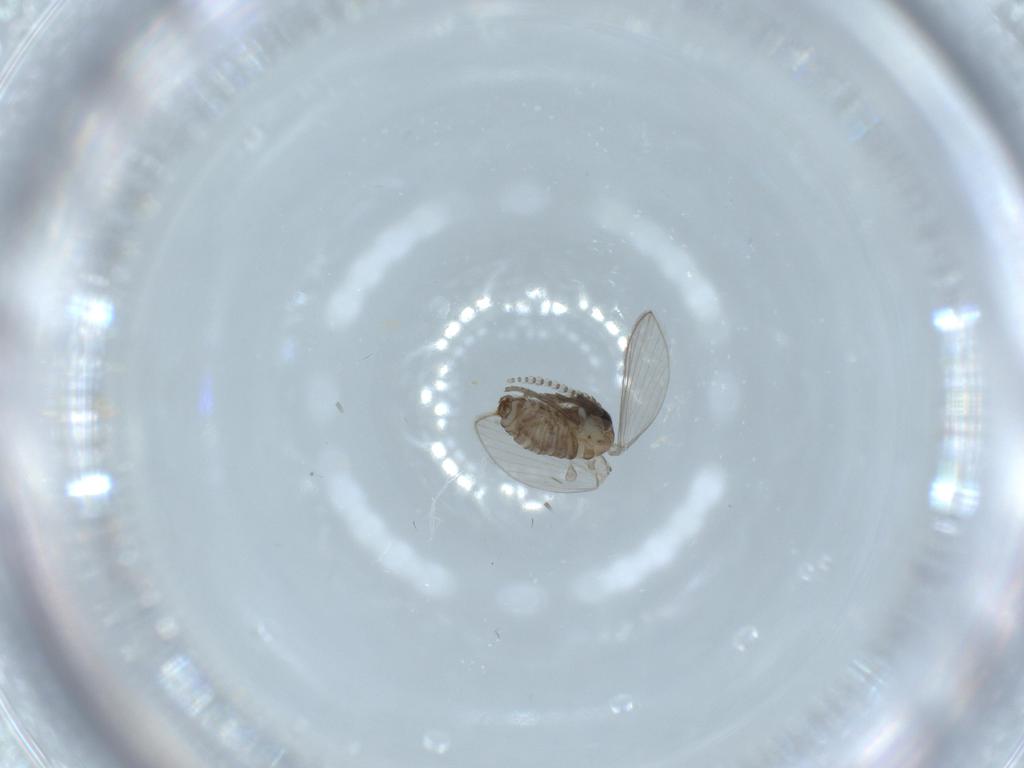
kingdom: Animalia
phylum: Arthropoda
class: Insecta
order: Diptera
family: Psychodidae
